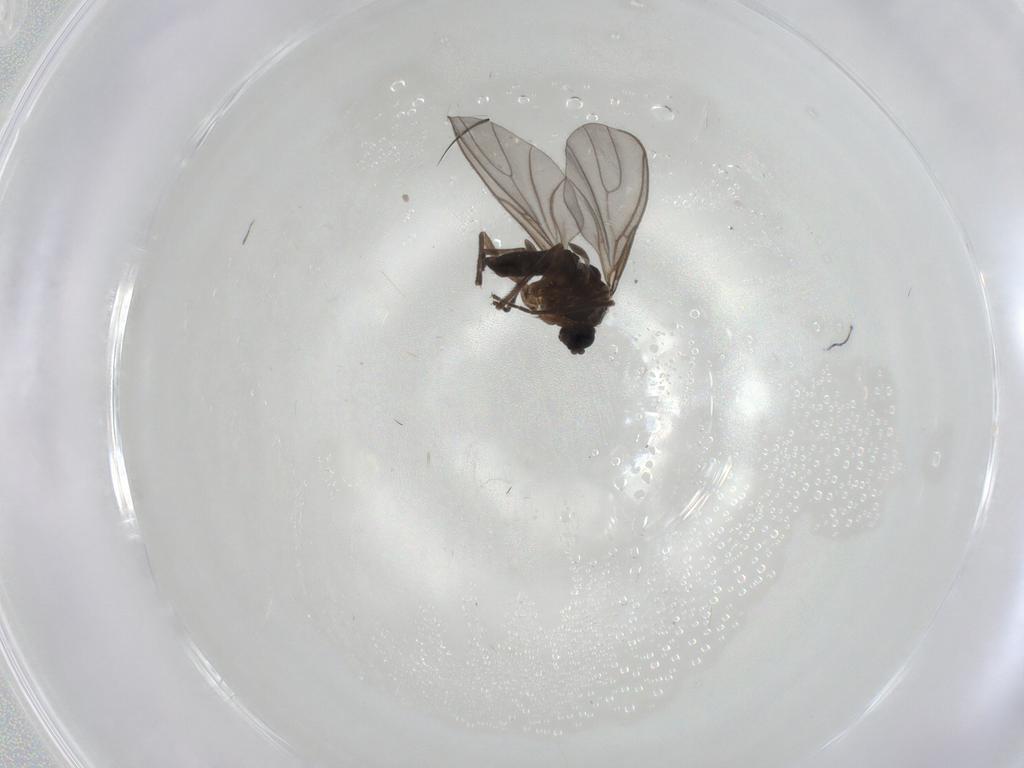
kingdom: Animalia
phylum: Arthropoda
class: Insecta
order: Diptera
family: Sciaridae
